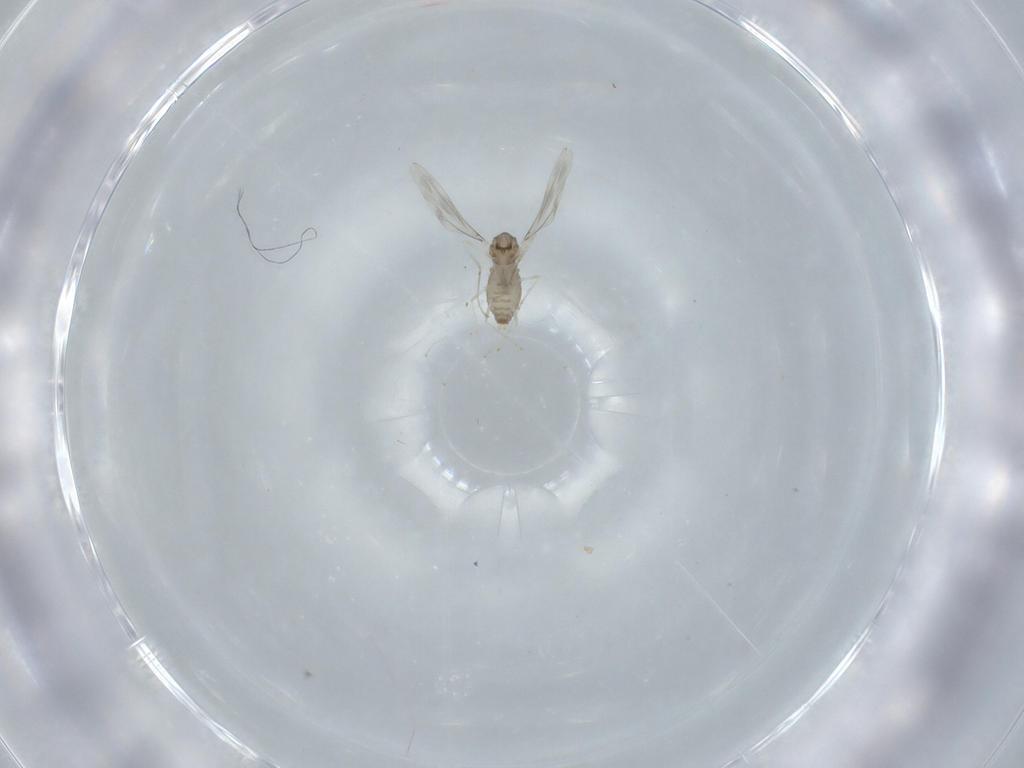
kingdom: Animalia
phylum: Arthropoda
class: Insecta
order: Diptera
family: Cecidomyiidae
